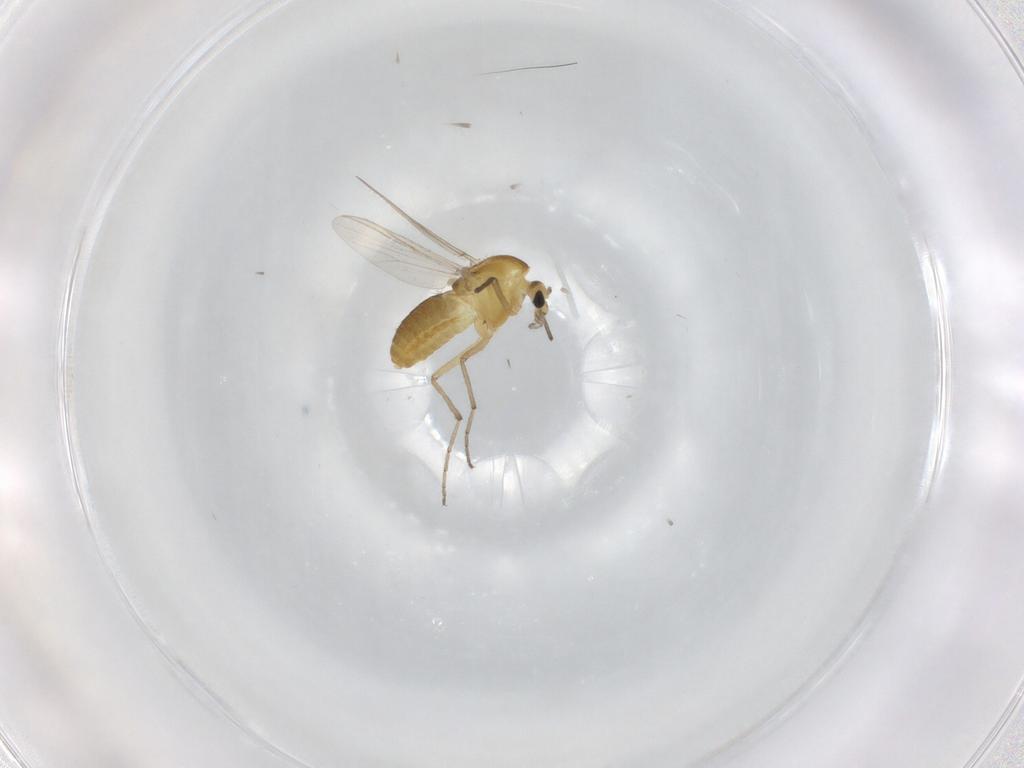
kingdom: Animalia
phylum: Arthropoda
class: Insecta
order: Diptera
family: Chironomidae
